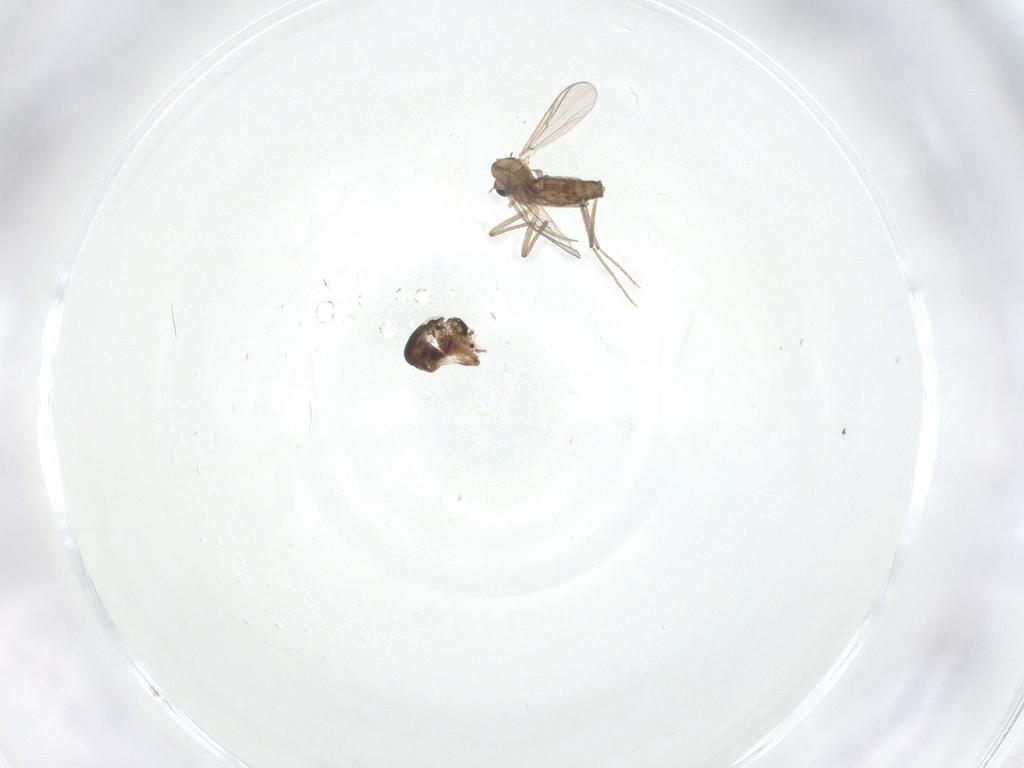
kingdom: Animalia
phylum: Arthropoda
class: Insecta
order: Diptera
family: Chironomidae
